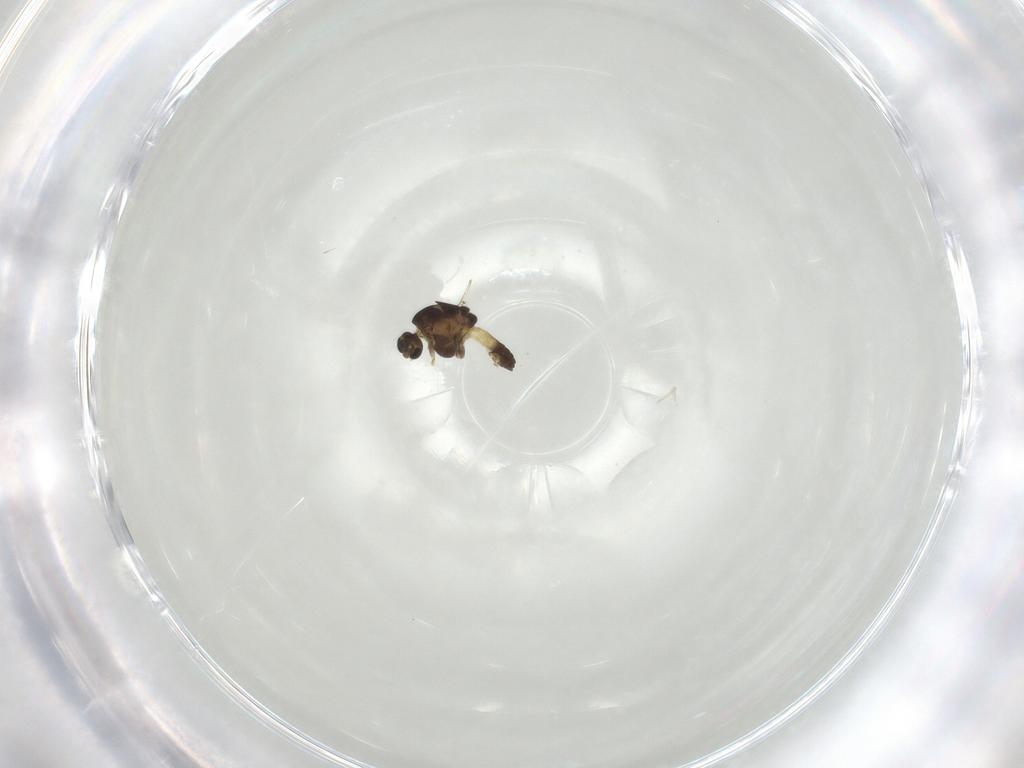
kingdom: Animalia
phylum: Arthropoda
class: Insecta
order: Diptera
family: Chironomidae
